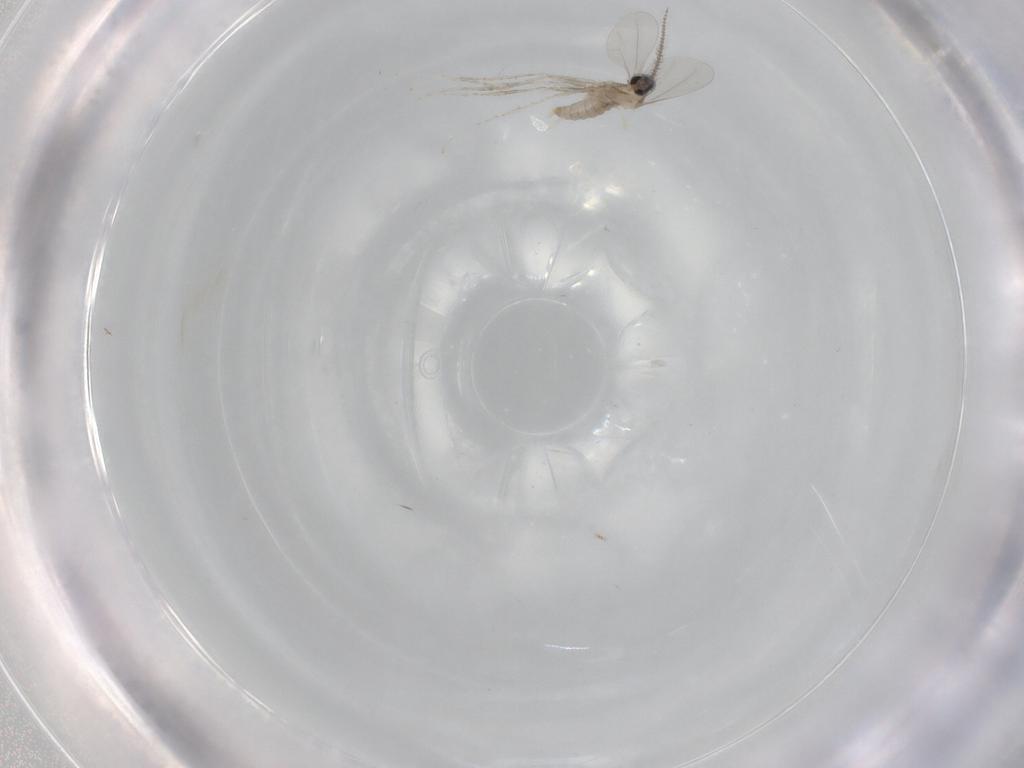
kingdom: Animalia
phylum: Arthropoda
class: Insecta
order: Diptera
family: Dolichopodidae
